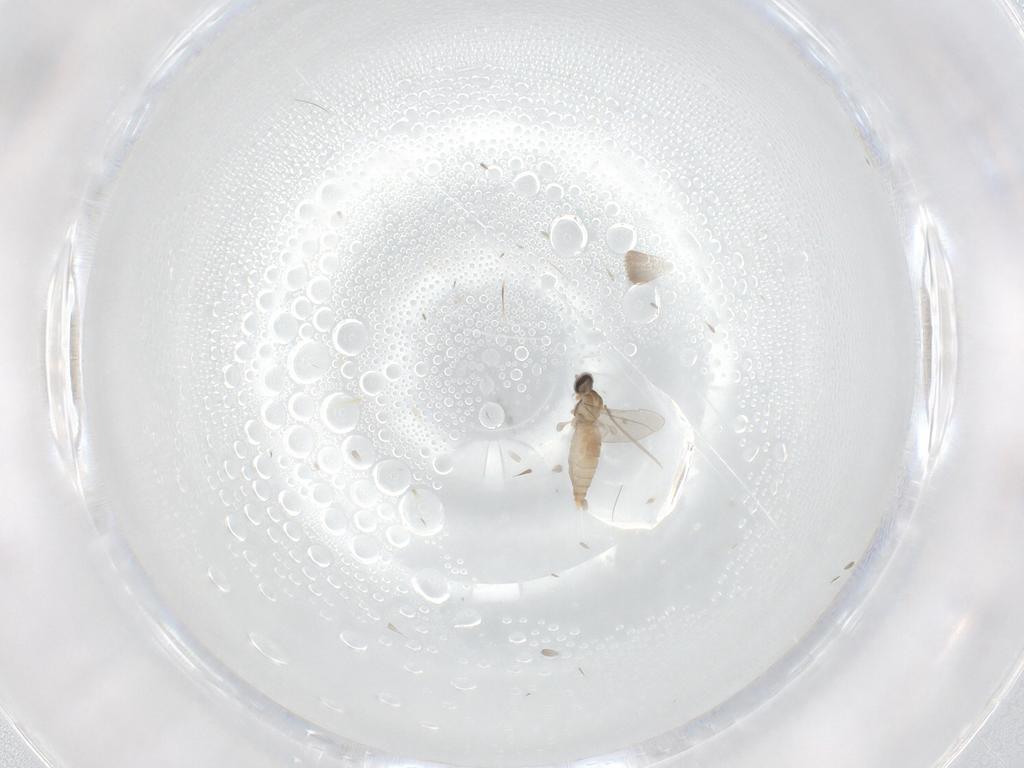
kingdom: Animalia
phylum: Arthropoda
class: Insecta
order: Diptera
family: Cecidomyiidae
